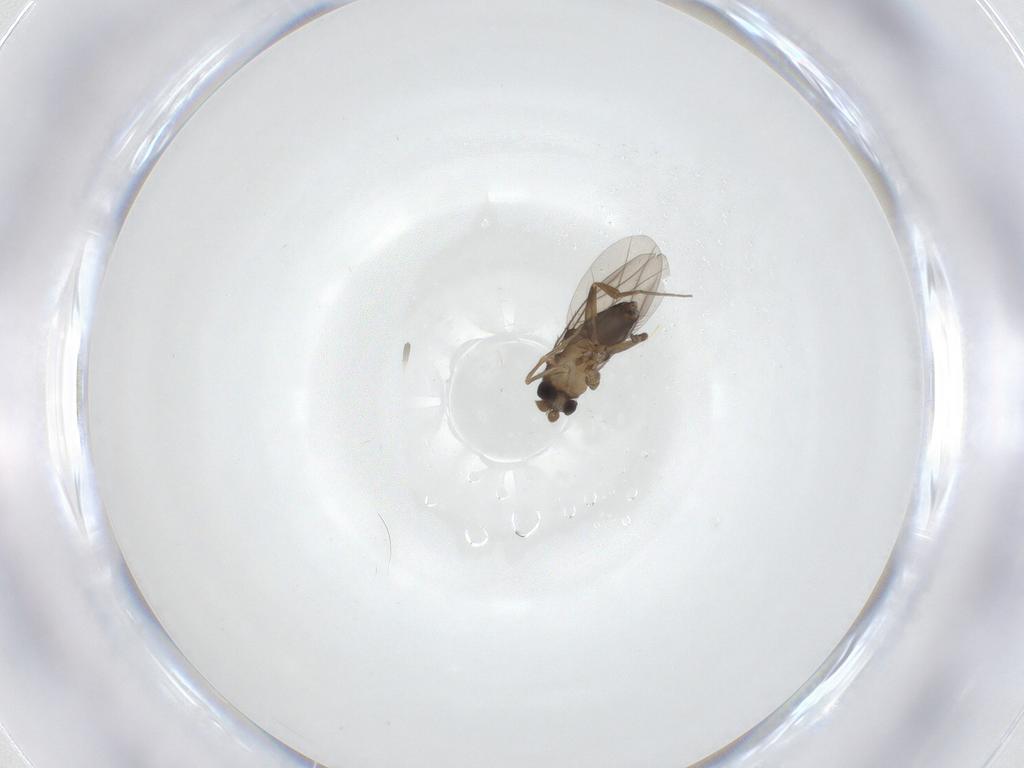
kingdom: Animalia
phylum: Arthropoda
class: Insecta
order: Diptera
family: Phoridae
